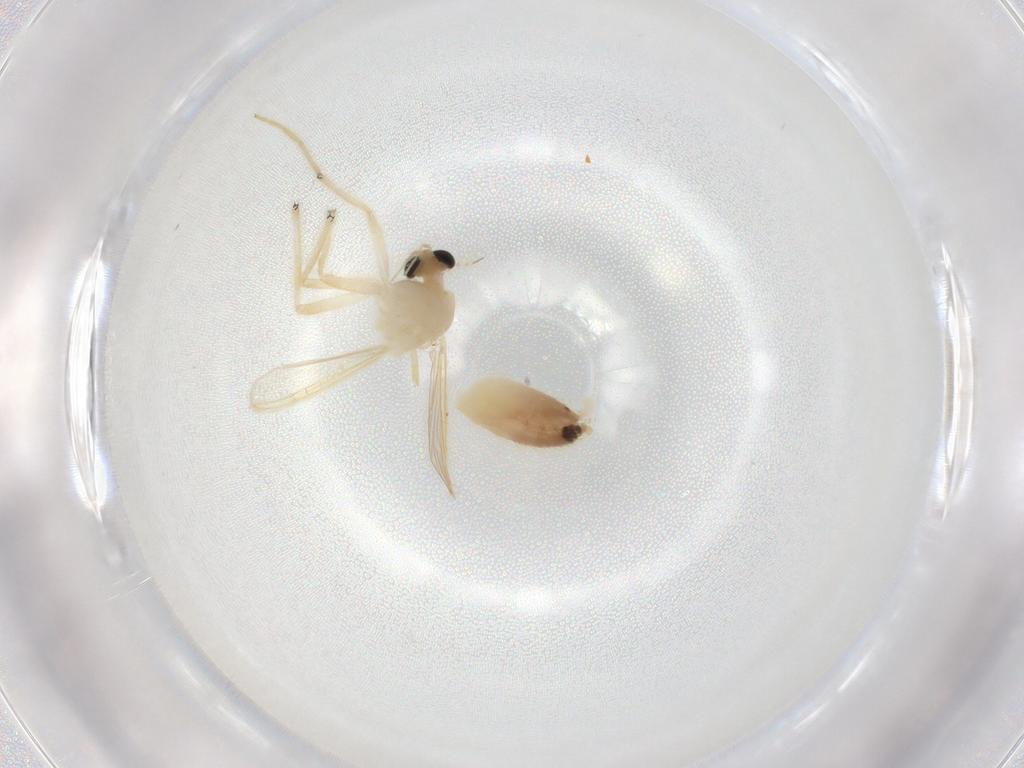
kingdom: Animalia
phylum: Arthropoda
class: Insecta
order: Diptera
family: Chironomidae
